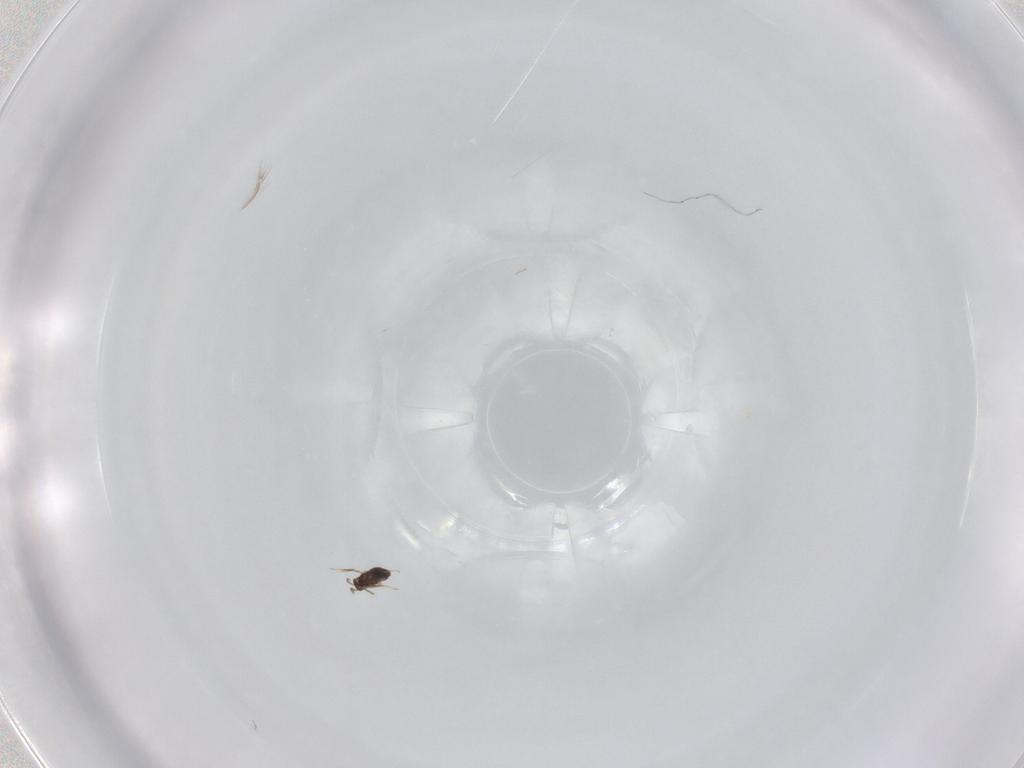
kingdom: Animalia
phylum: Arthropoda
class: Insecta
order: Hymenoptera
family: Mymaridae
